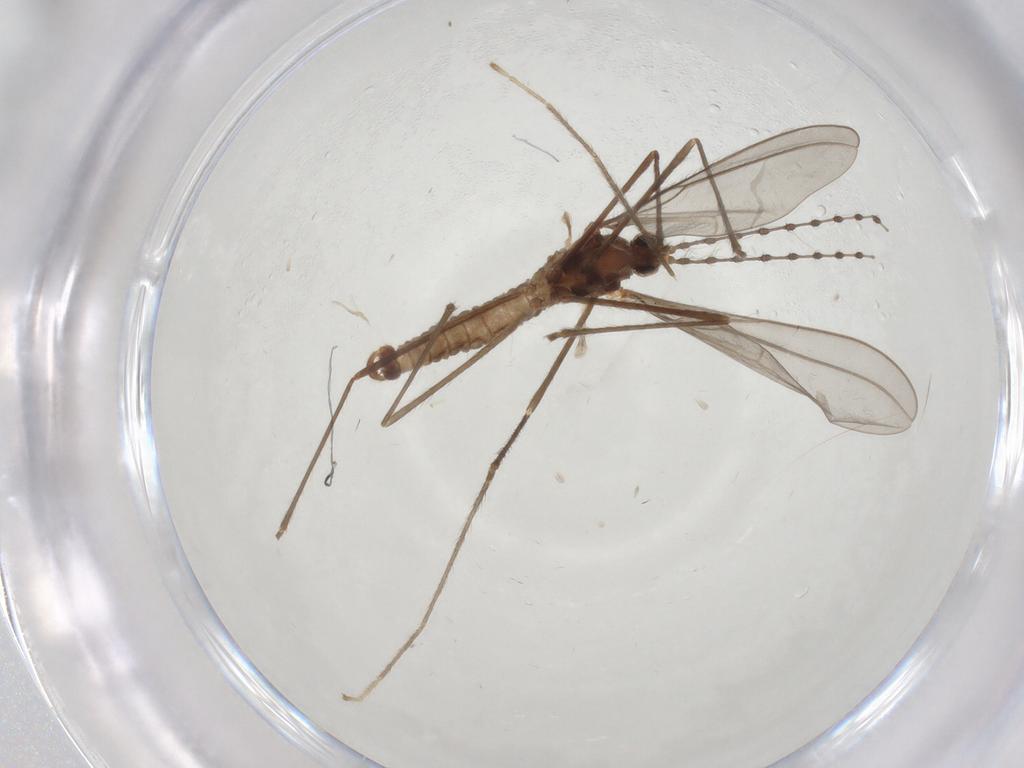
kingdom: Animalia
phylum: Arthropoda
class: Insecta
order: Diptera
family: Cecidomyiidae
